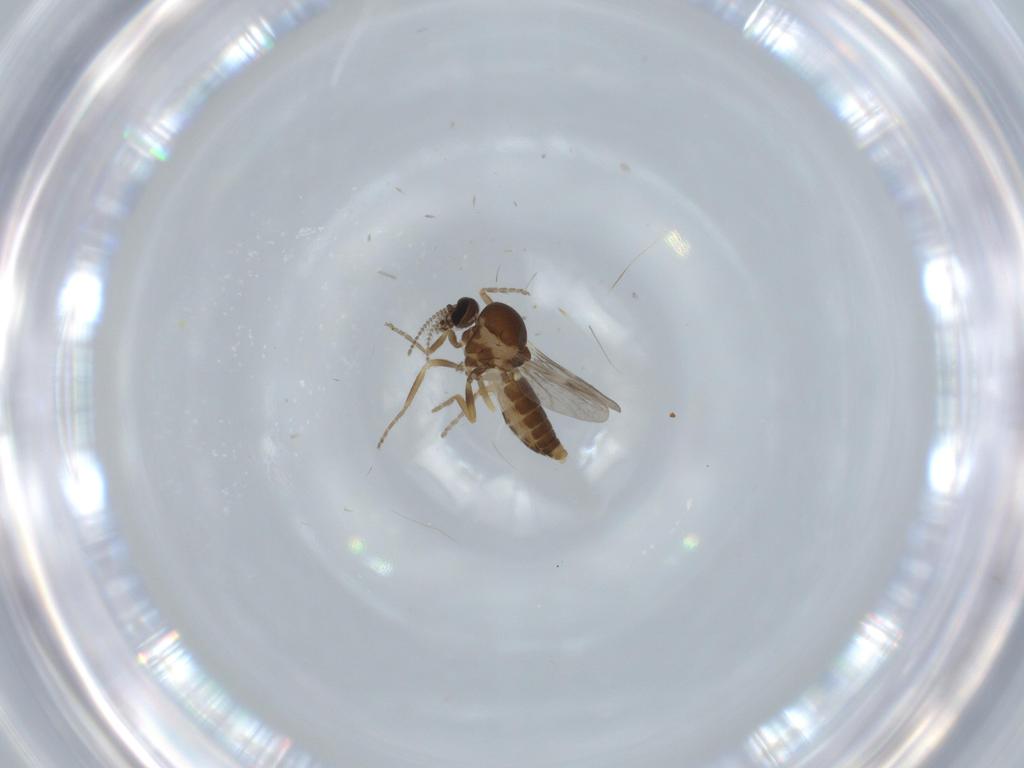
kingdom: Animalia
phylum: Arthropoda
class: Insecta
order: Diptera
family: Ceratopogonidae
